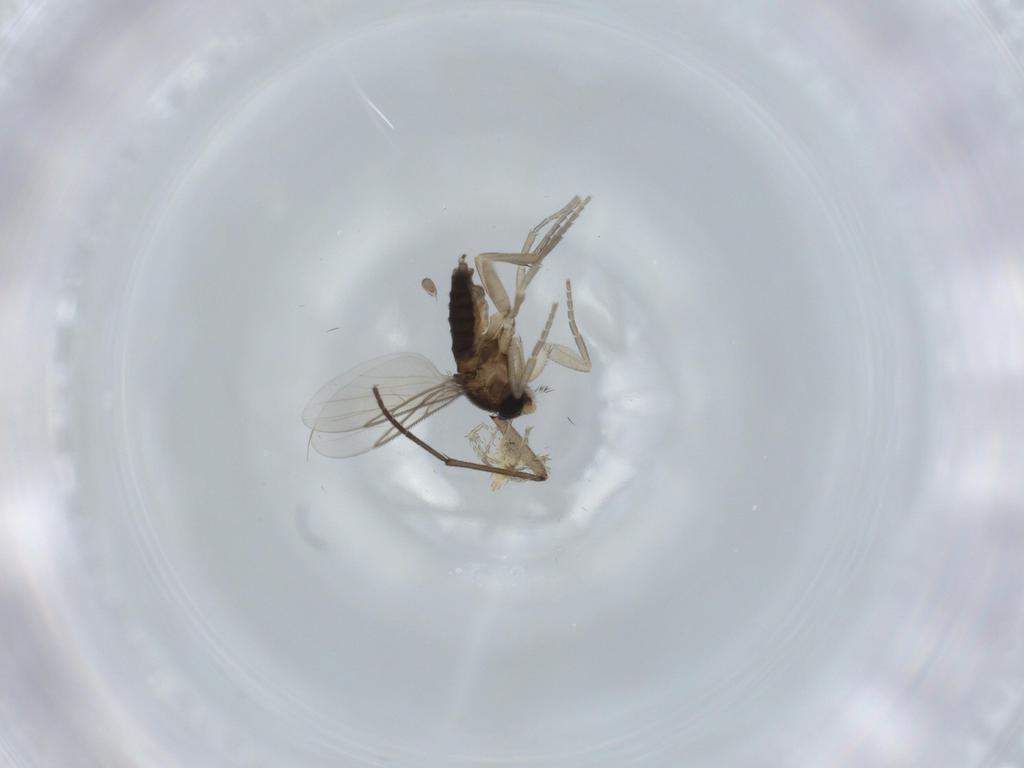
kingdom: Animalia
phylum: Arthropoda
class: Insecta
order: Diptera
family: Phoridae
